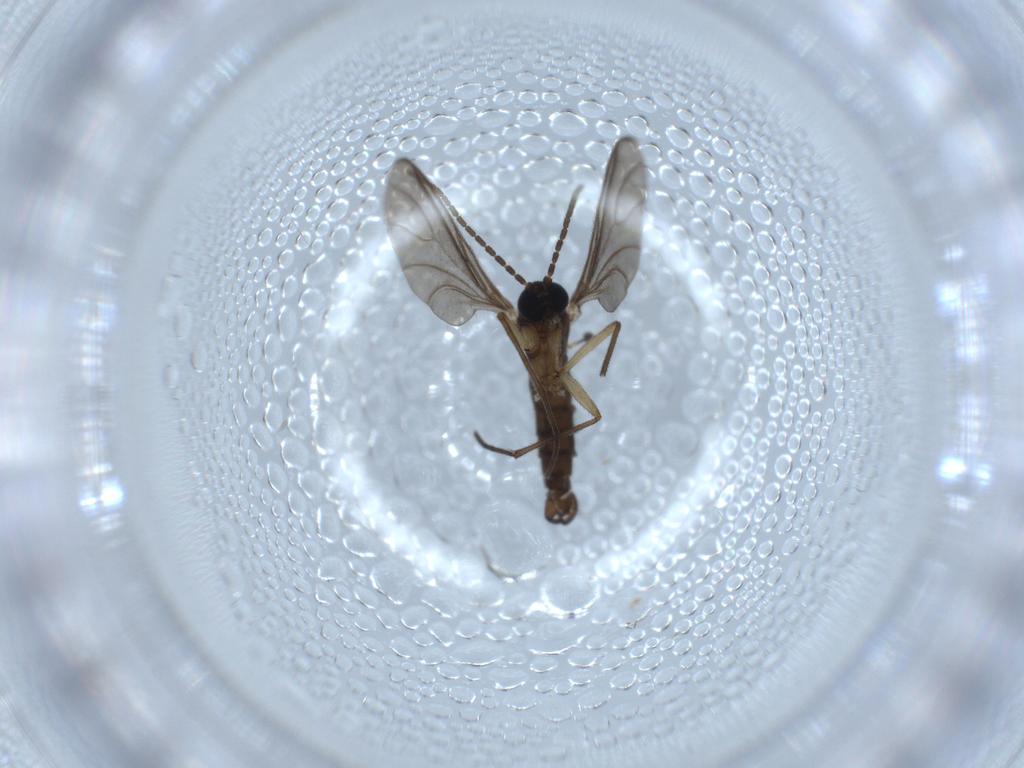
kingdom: Animalia
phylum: Arthropoda
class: Insecta
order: Diptera
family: Sciaridae
